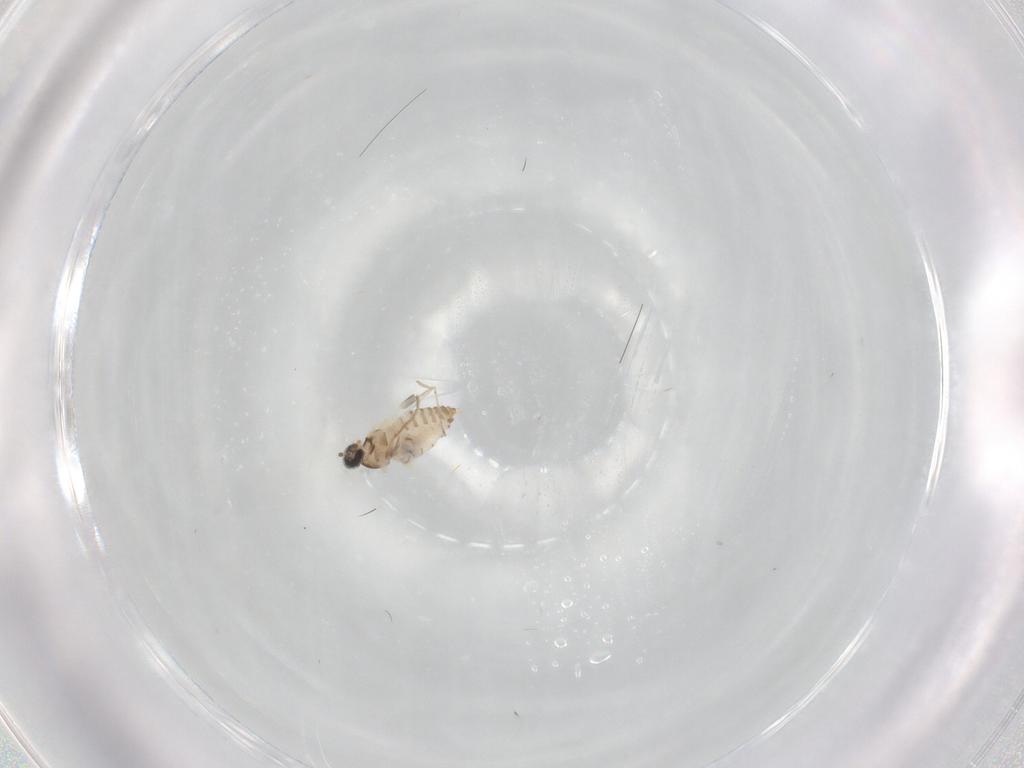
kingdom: Animalia
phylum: Arthropoda
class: Insecta
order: Diptera
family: Cecidomyiidae
